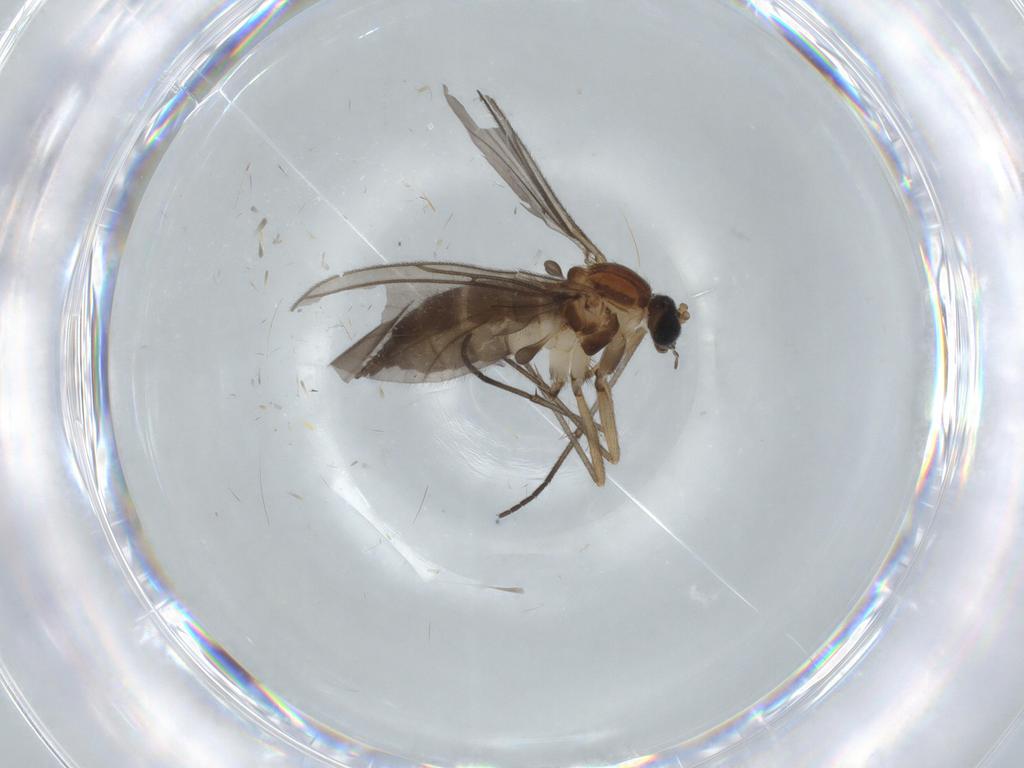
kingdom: Animalia
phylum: Arthropoda
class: Insecta
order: Diptera
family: Sciaridae
